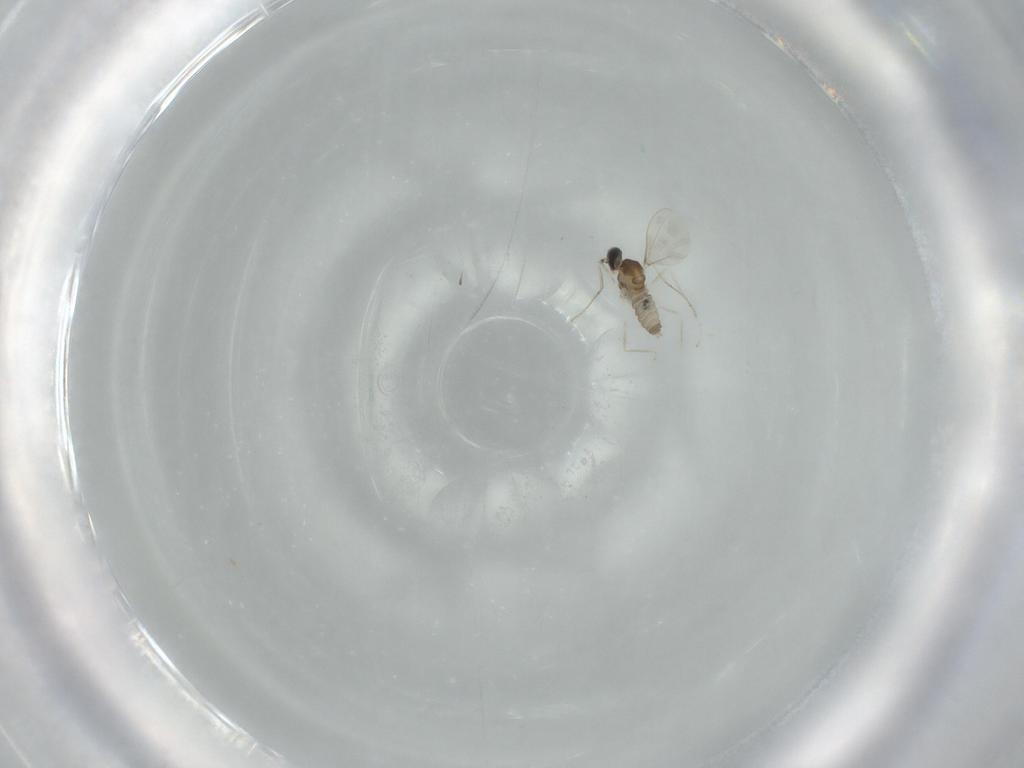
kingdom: Animalia
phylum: Arthropoda
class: Insecta
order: Diptera
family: Cecidomyiidae
